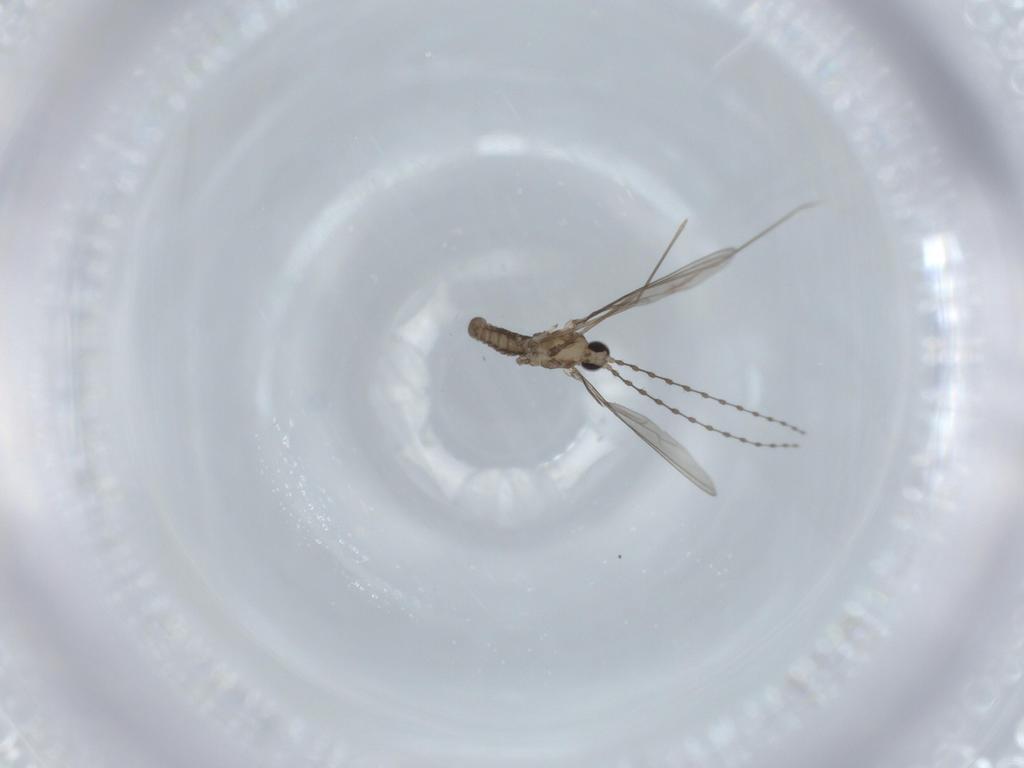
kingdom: Animalia
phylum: Arthropoda
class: Insecta
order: Diptera
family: Cecidomyiidae
